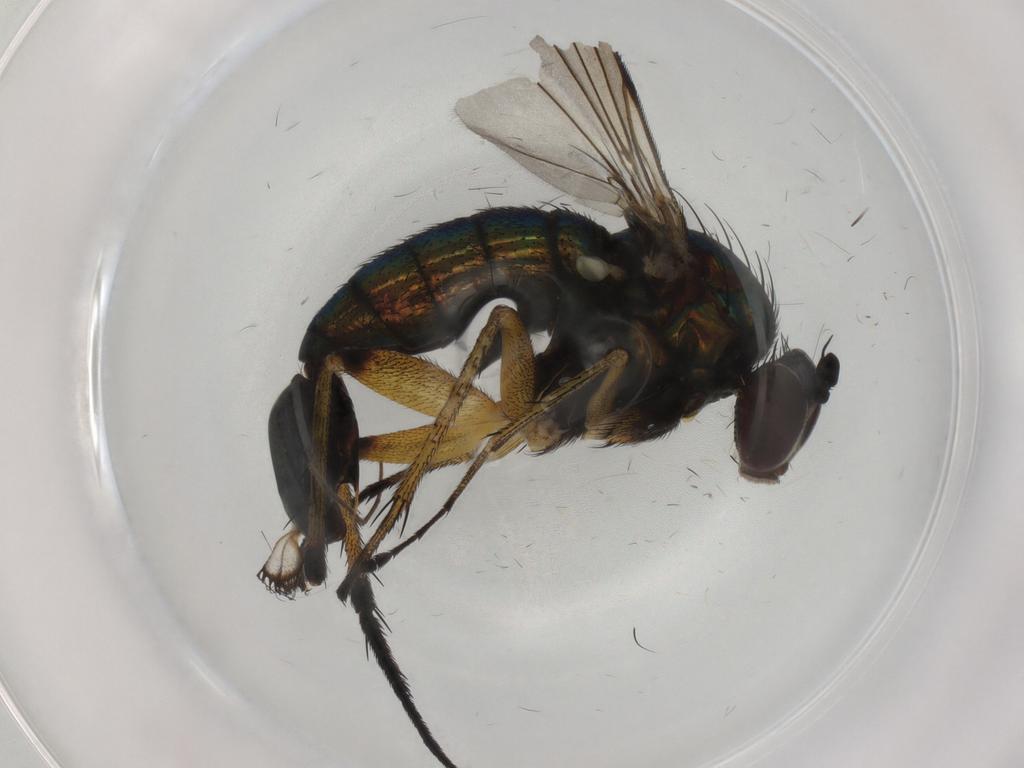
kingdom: Animalia
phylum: Arthropoda
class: Insecta
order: Diptera
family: Dolichopodidae
